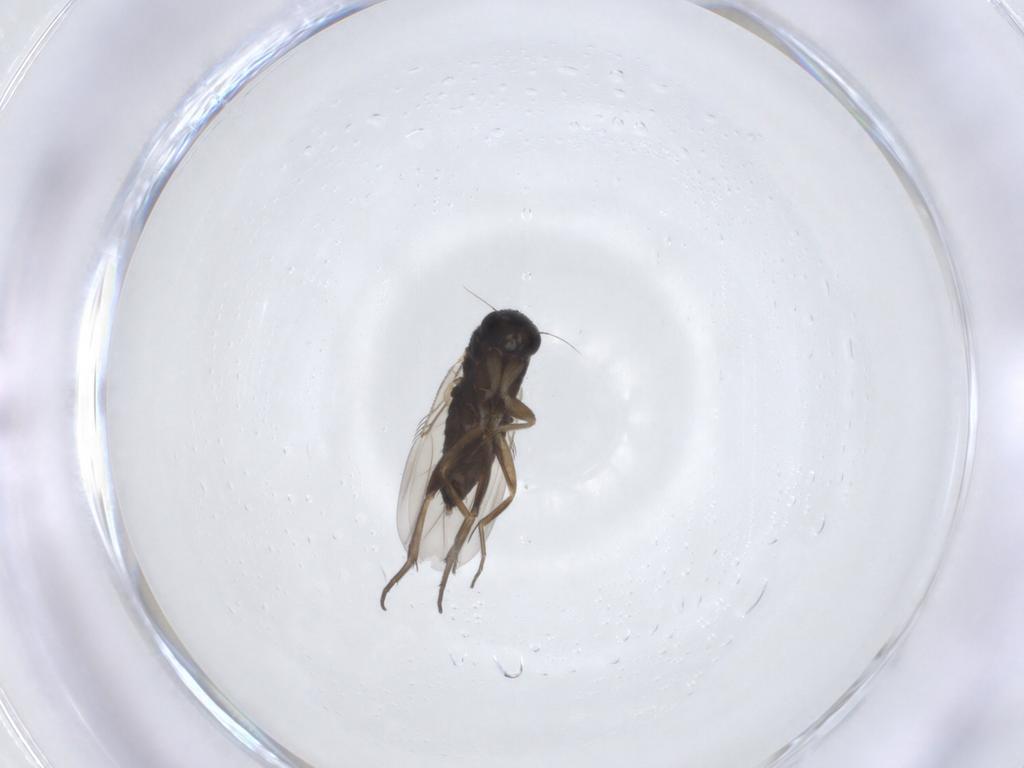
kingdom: Animalia
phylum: Arthropoda
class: Insecta
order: Diptera
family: Phoridae
